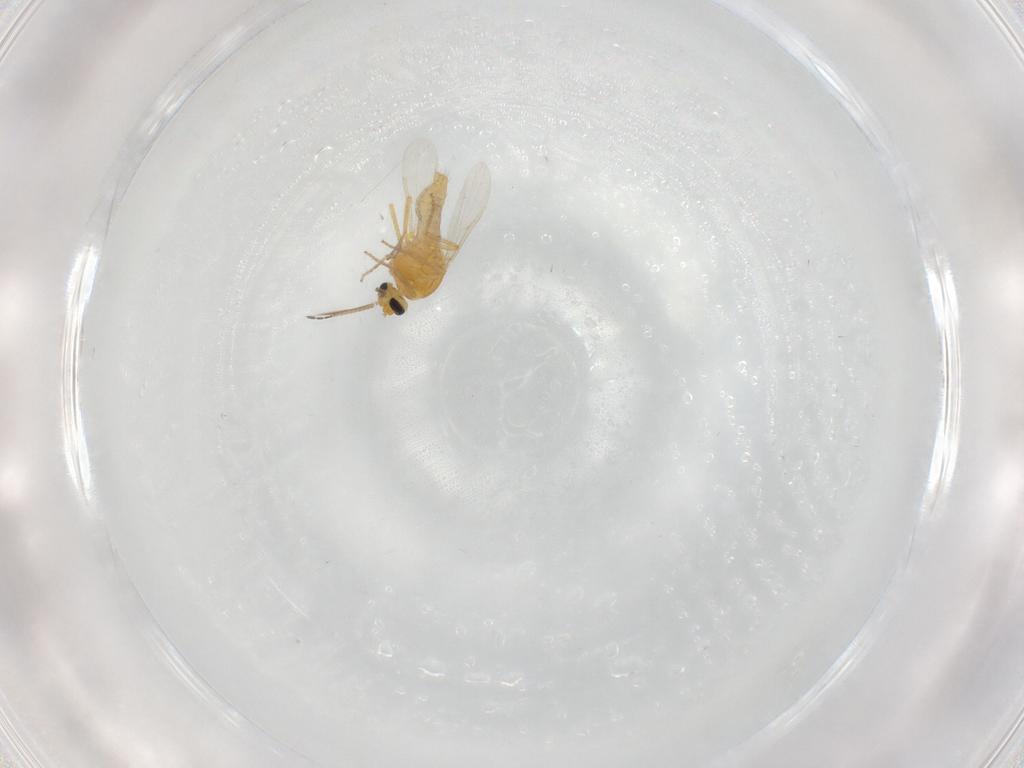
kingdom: Animalia
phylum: Arthropoda
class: Insecta
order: Diptera
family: Ceratopogonidae
